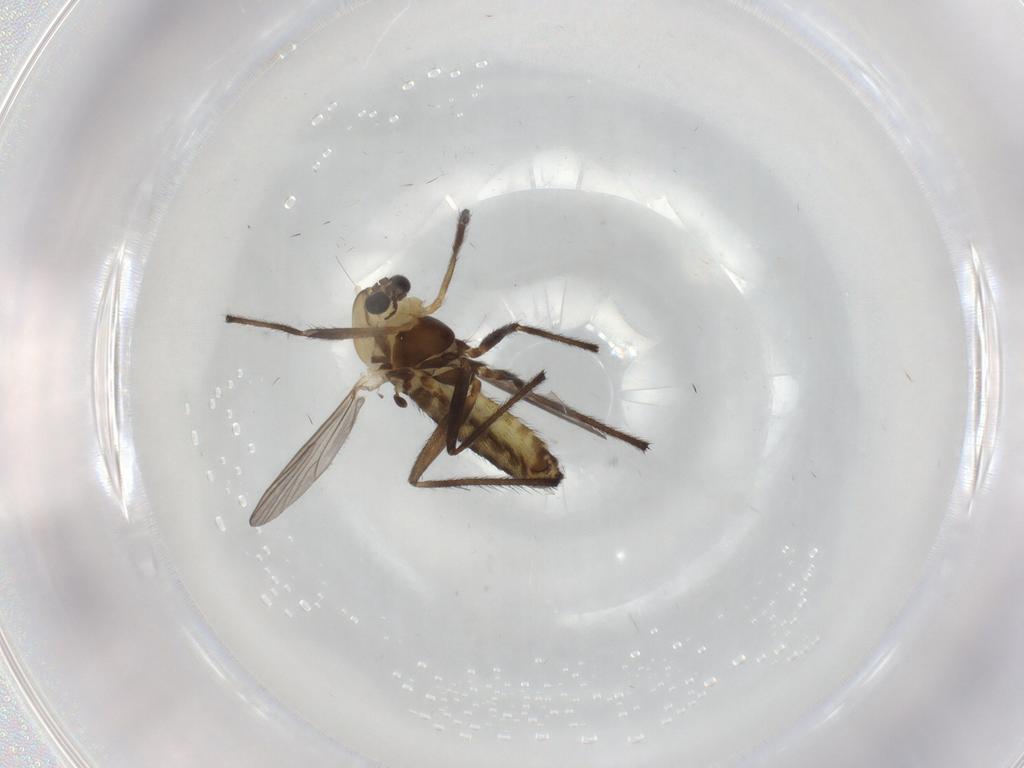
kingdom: Animalia
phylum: Arthropoda
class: Insecta
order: Diptera
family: Chironomidae
